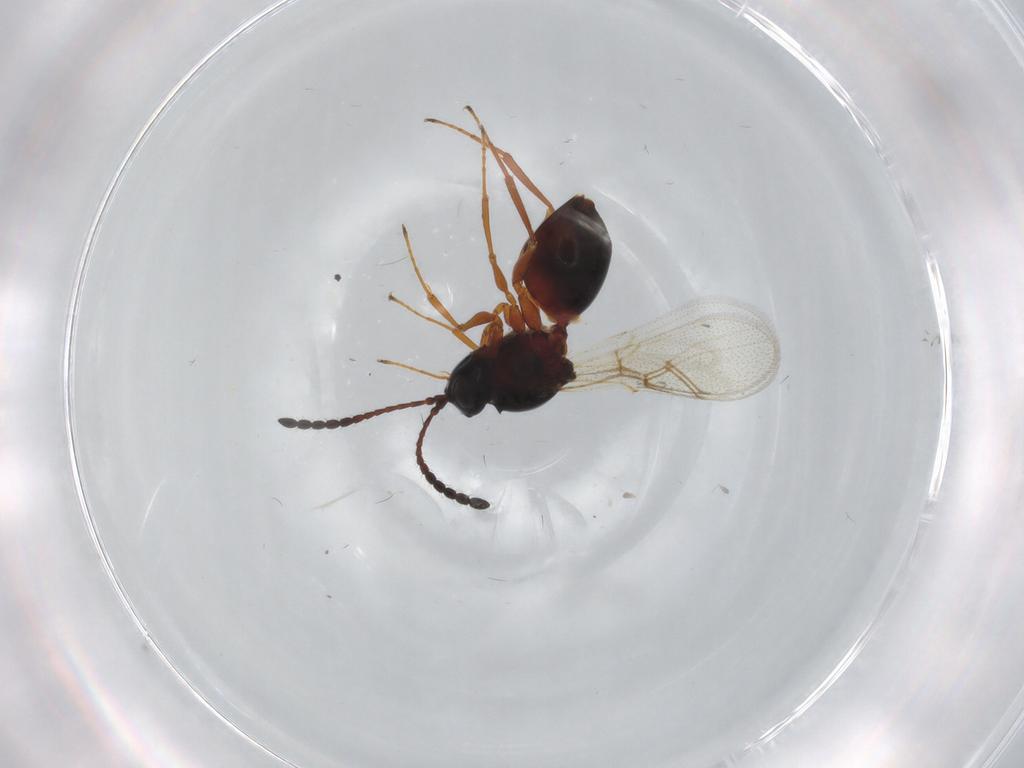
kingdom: Animalia
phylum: Arthropoda
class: Insecta
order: Hymenoptera
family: Figitidae
